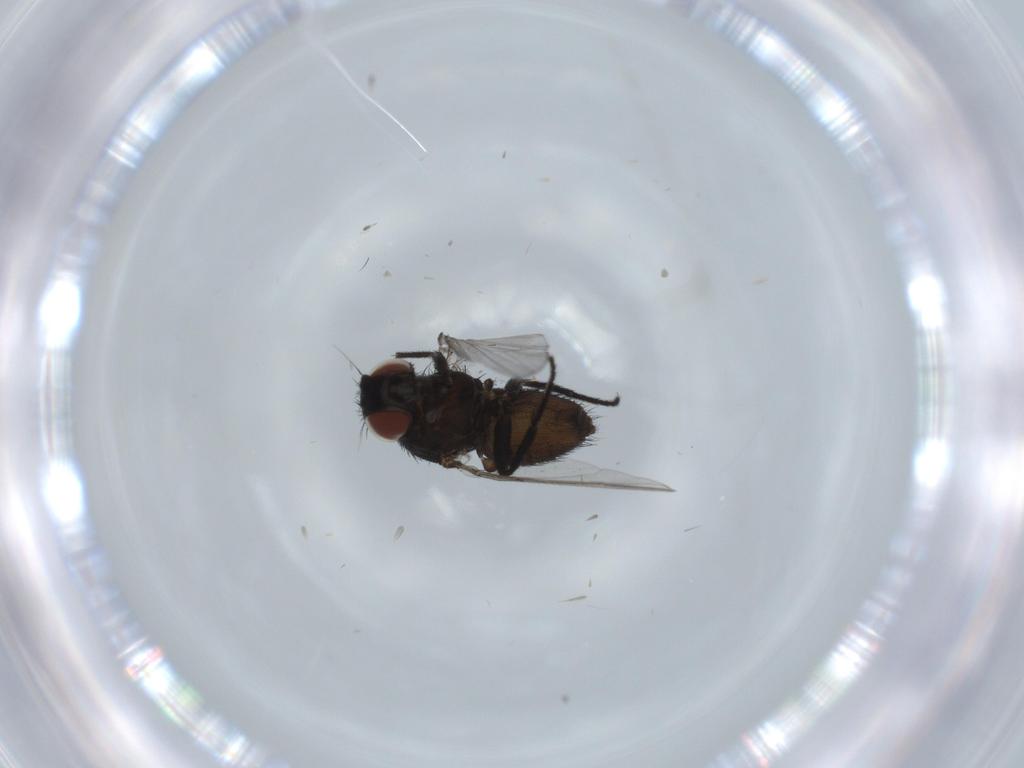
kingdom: Animalia
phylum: Arthropoda
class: Insecta
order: Diptera
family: Milichiidae
